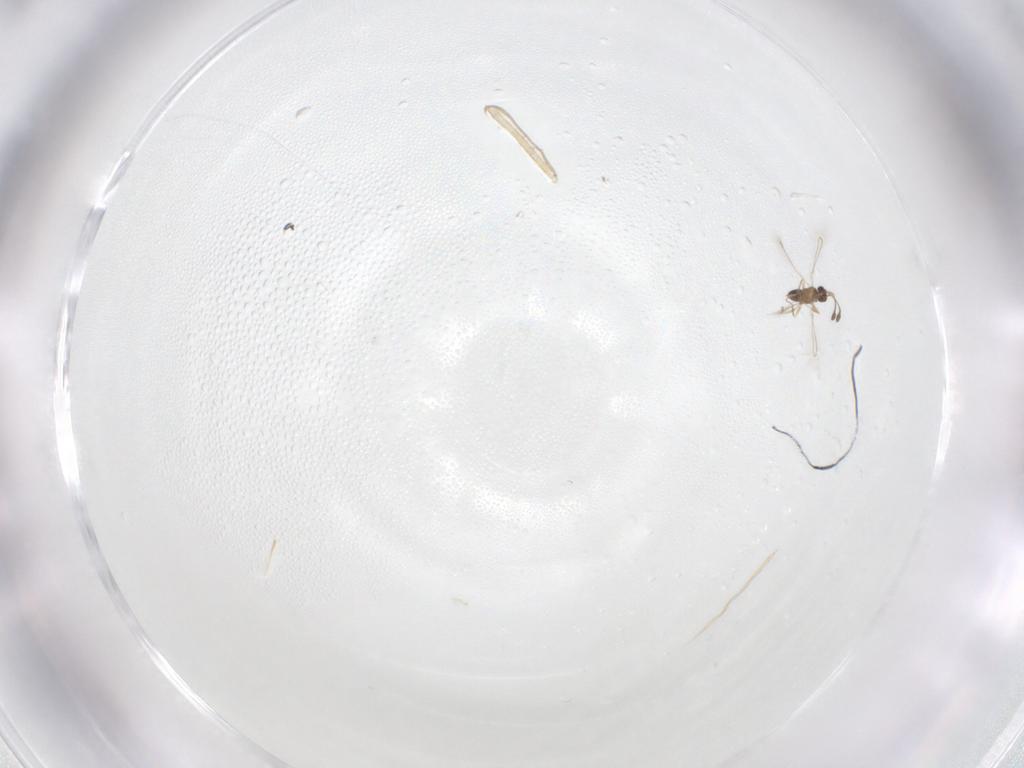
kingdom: Animalia
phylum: Arthropoda
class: Insecta
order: Hymenoptera
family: Mymaridae
